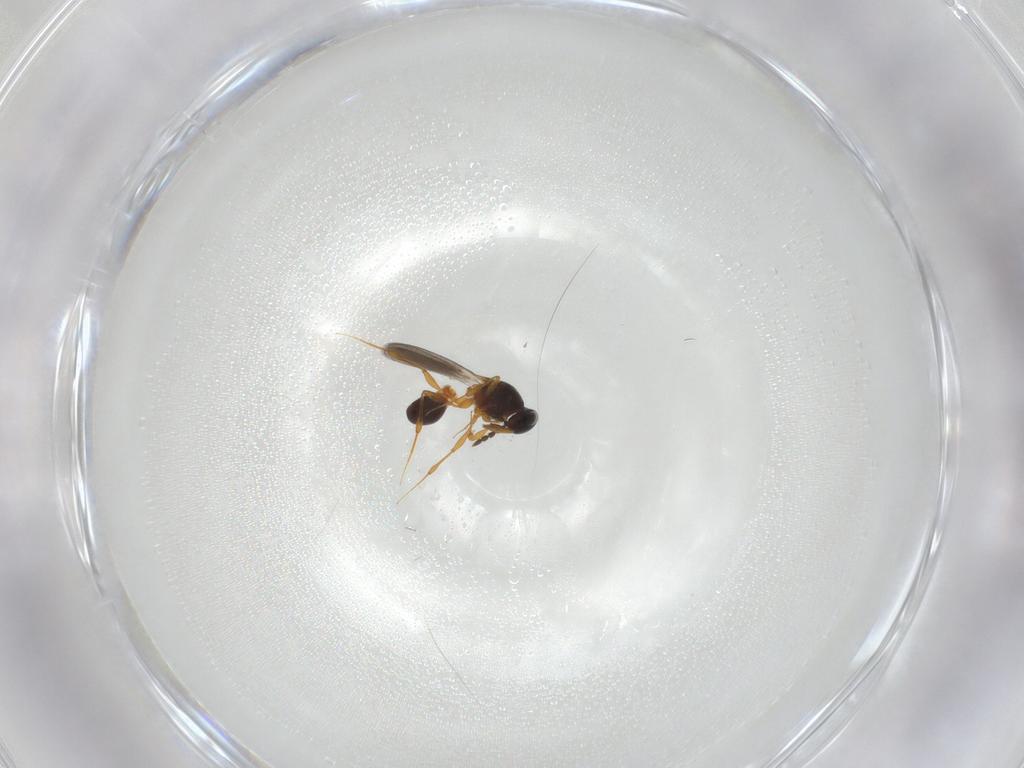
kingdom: Animalia
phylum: Arthropoda
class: Insecta
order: Hymenoptera
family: Platygastridae
